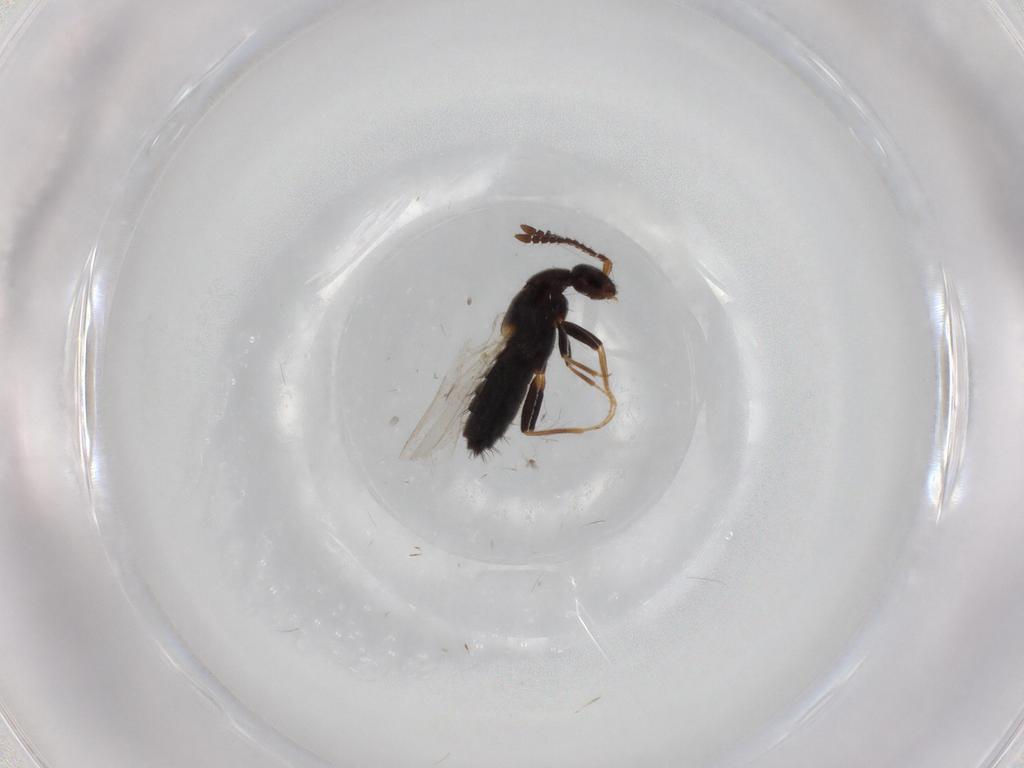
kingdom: Animalia
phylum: Arthropoda
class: Insecta
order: Coleoptera
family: Staphylinidae
